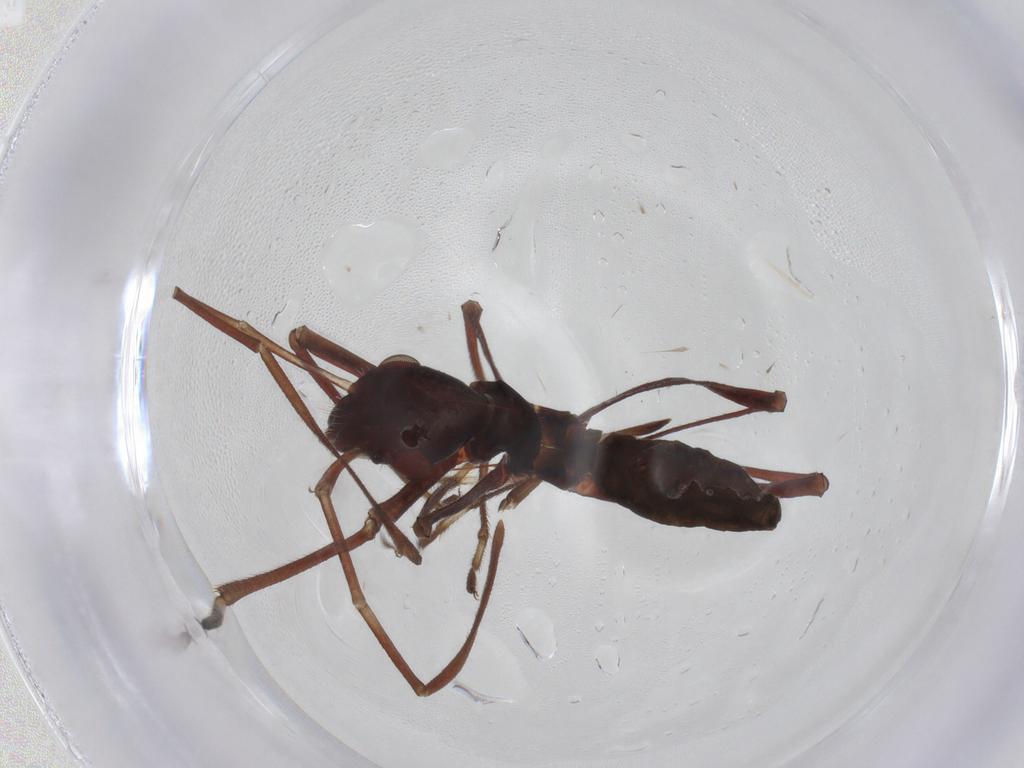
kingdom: Animalia
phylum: Arthropoda
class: Insecta
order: Hemiptera
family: Alydidae
